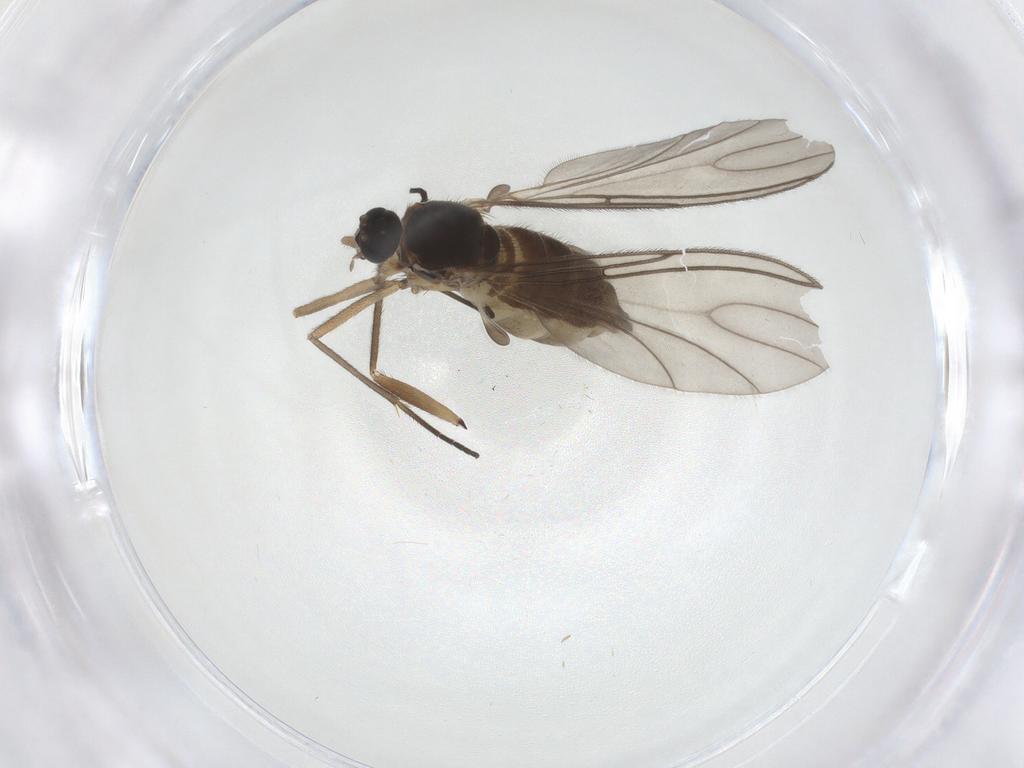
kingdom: Animalia
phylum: Arthropoda
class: Insecta
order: Diptera
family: Sciaridae
